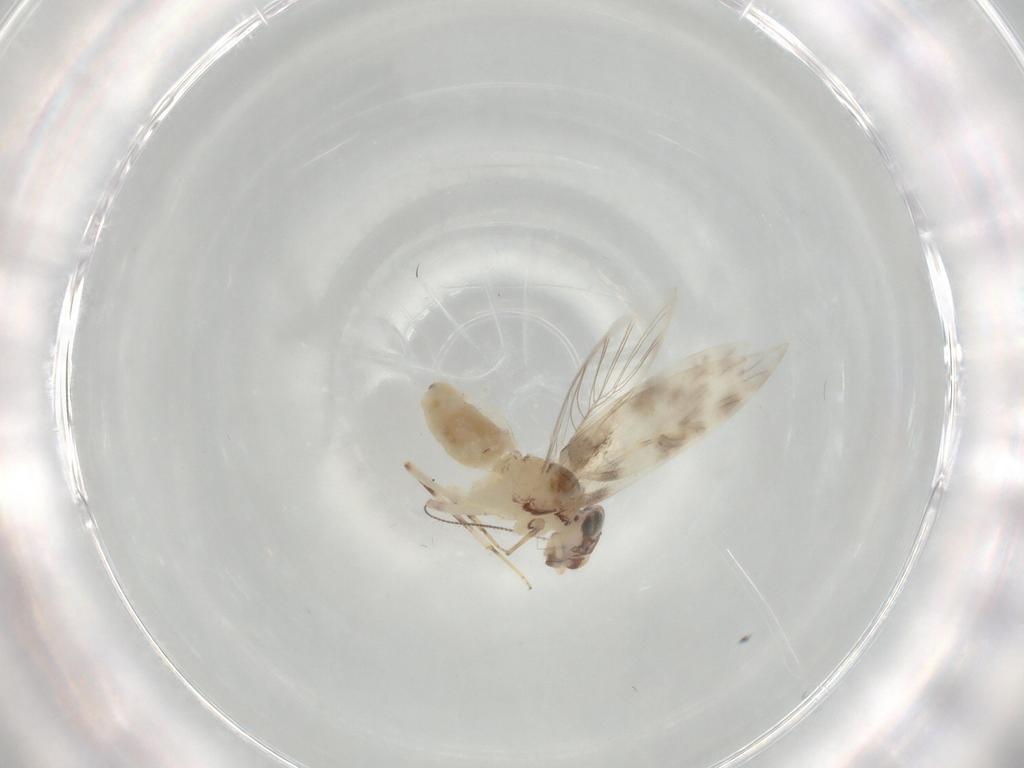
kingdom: Animalia
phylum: Arthropoda
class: Insecta
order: Psocodea
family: Lepidopsocidae
